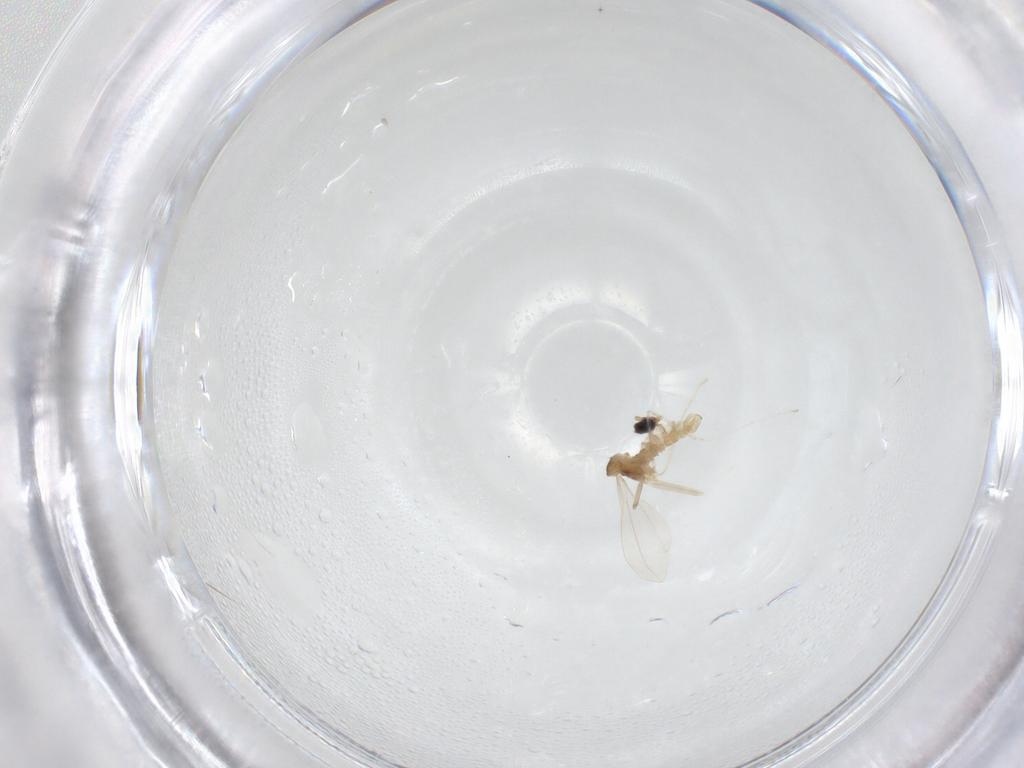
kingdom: Animalia
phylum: Arthropoda
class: Insecta
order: Diptera
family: Cecidomyiidae
